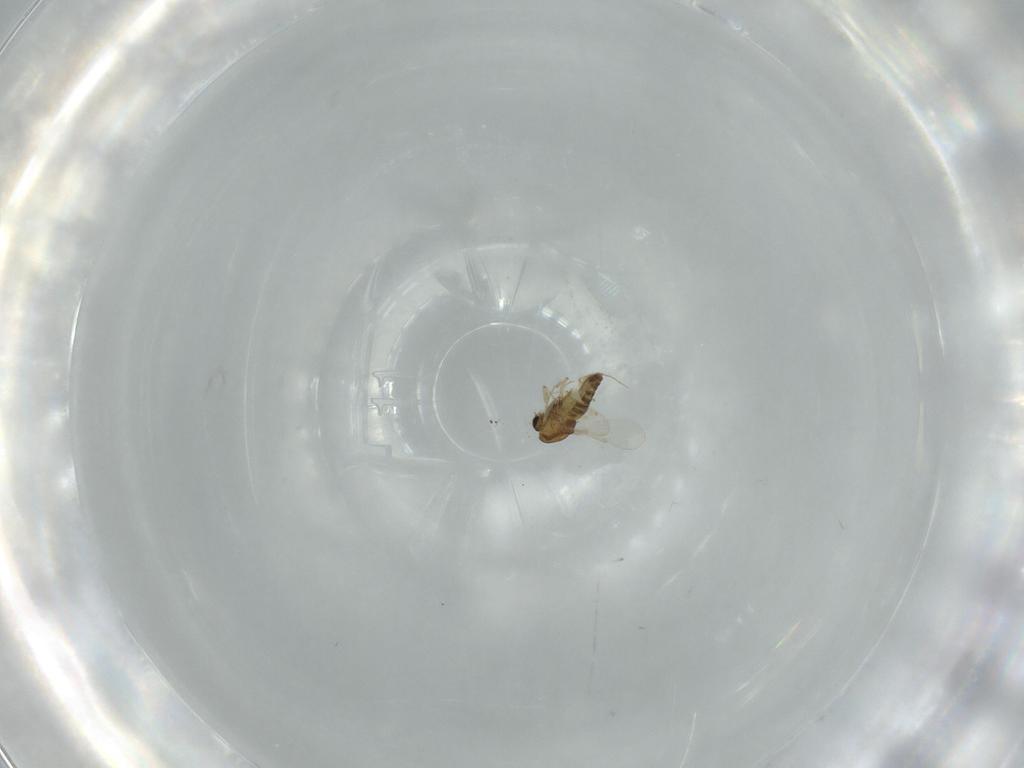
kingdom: Animalia
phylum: Arthropoda
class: Insecta
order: Diptera
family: Chironomidae
